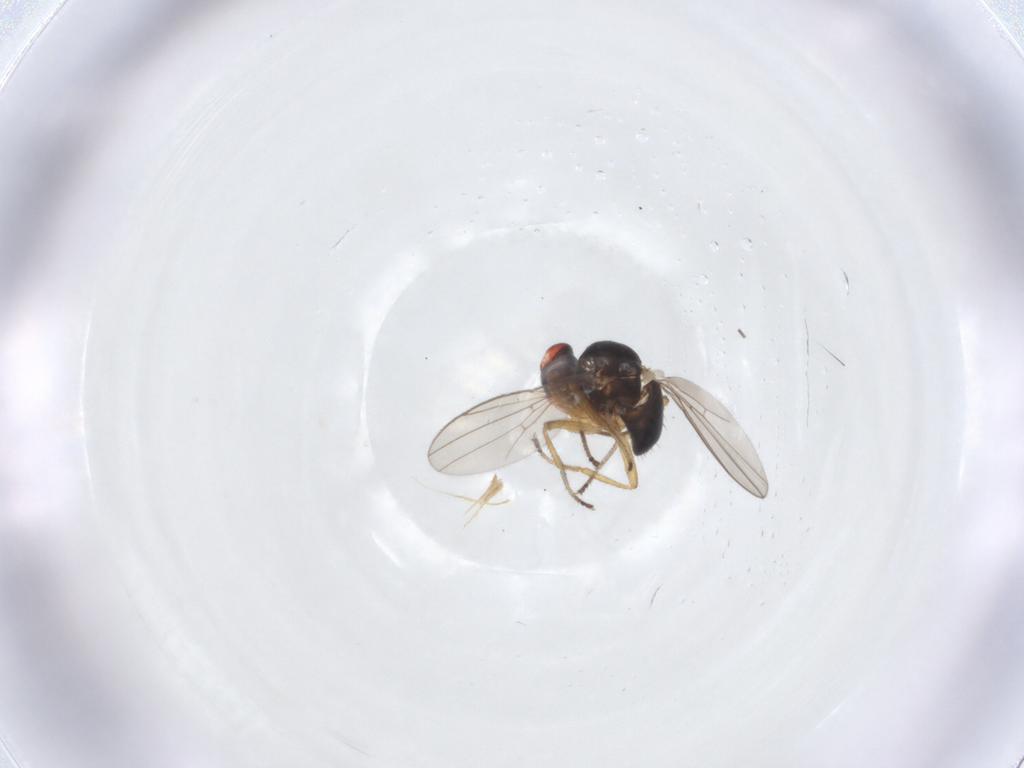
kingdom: Animalia
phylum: Arthropoda
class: Insecta
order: Diptera
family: Ephydridae
